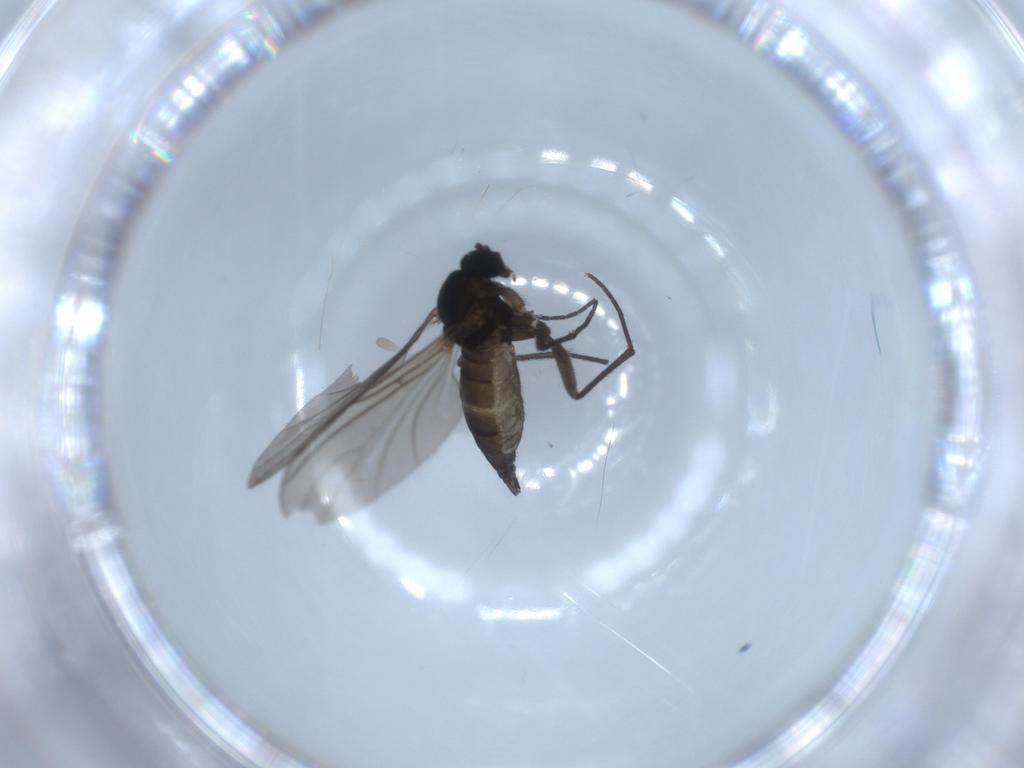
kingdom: Animalia
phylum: Arthropoda
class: Insecta
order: Diptera
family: Sciaridae
